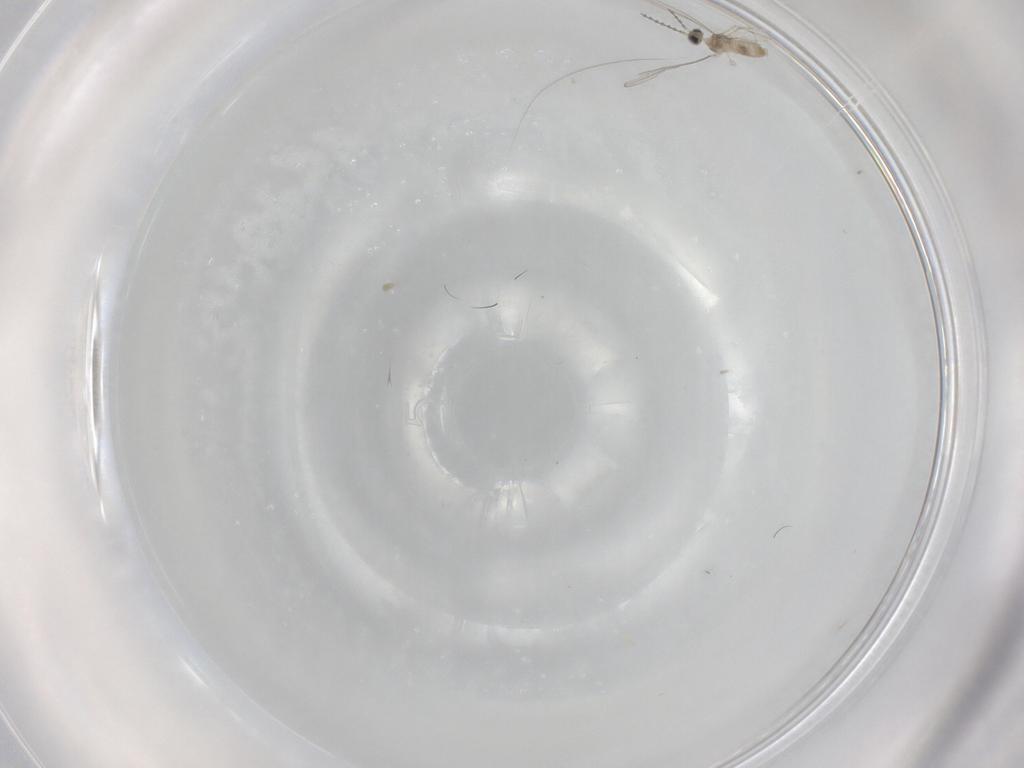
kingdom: Animalia
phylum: Arthropoda
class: Insecta
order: Diptera
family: Cecidomyiidae
